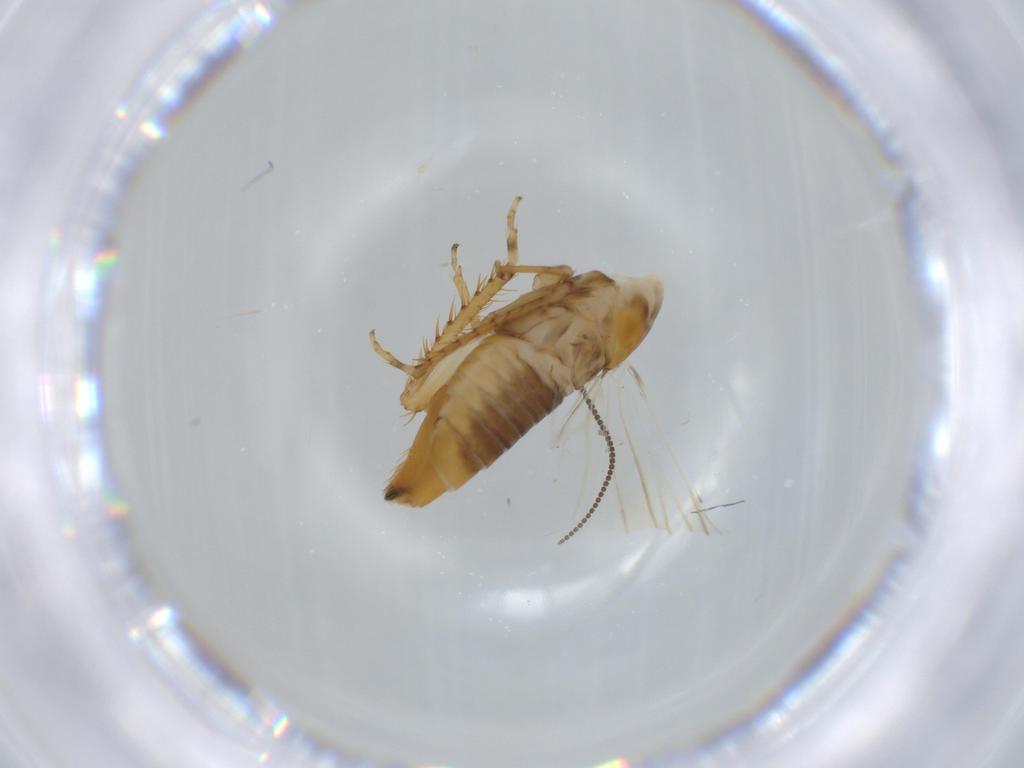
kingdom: Animalia
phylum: Arthropoda
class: Insecta
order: Hemiptera
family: Cicadellidae
